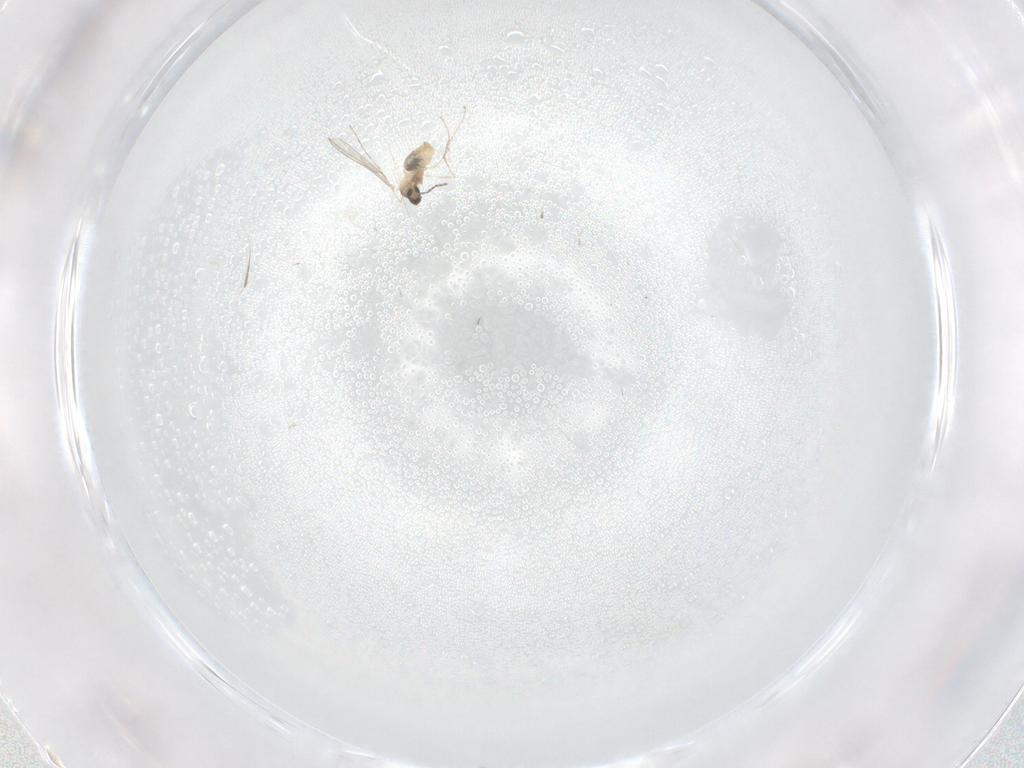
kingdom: Animalia
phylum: Arthropoda
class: Insecta
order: Diptera
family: Cecidomyiidae
